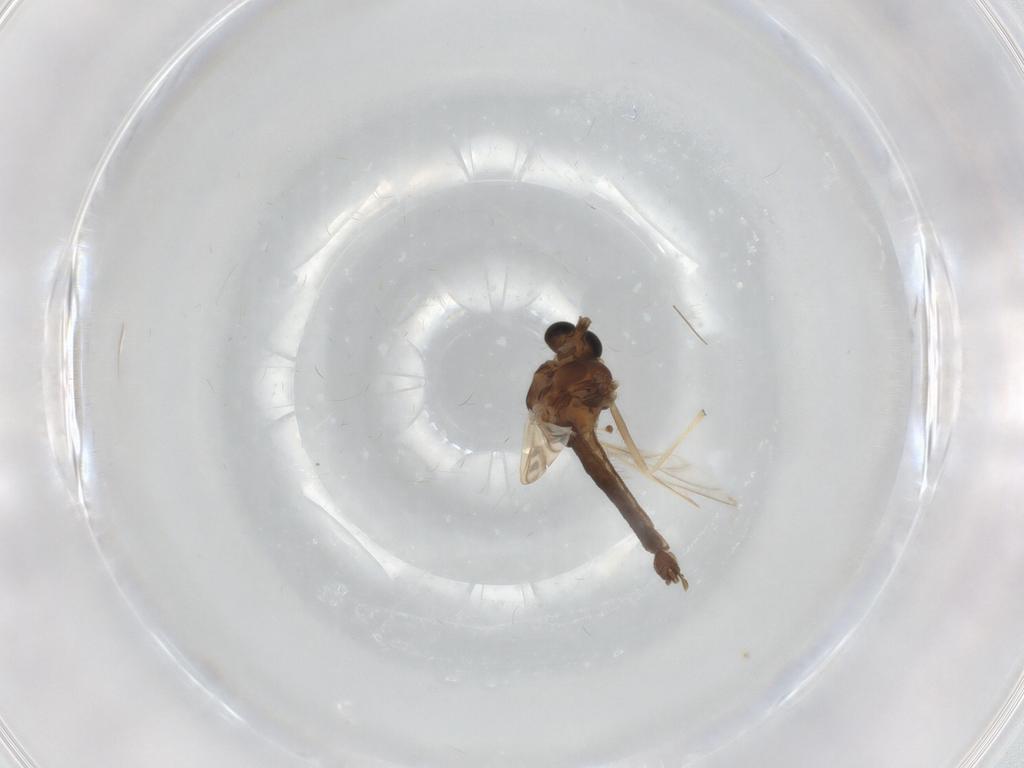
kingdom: Animalia
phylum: Arthropoda
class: Insecta
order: Diptera
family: Chironomidae
